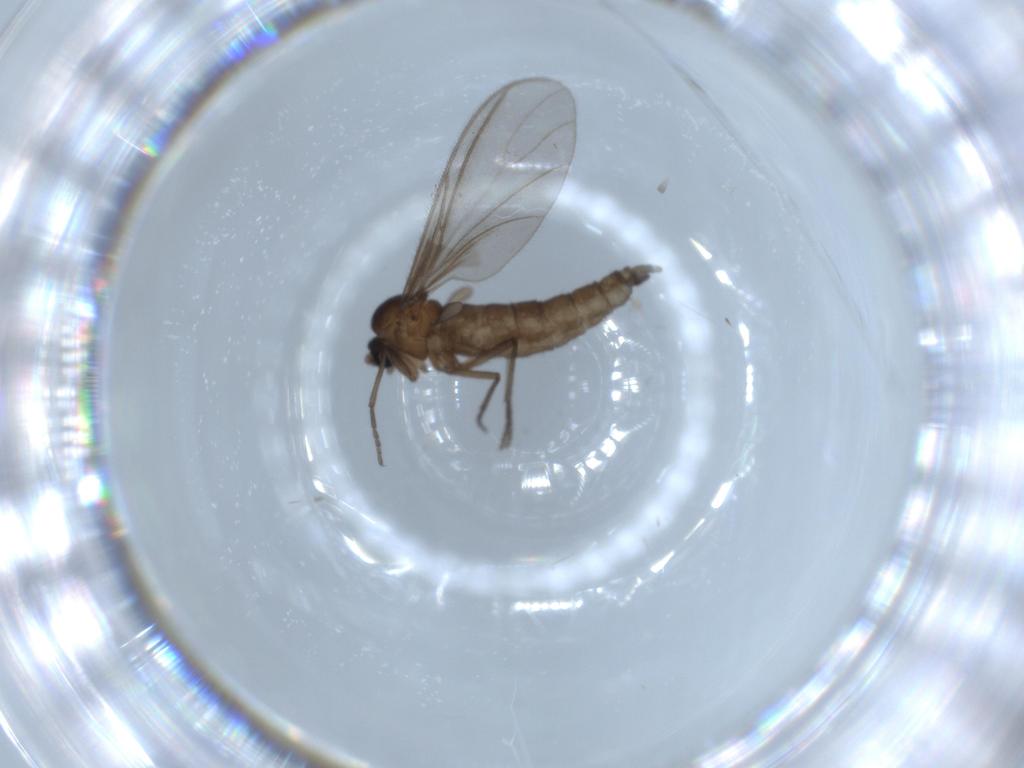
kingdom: Animalia
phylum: Arthropoda
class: Insecta
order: Diptera
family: Sciaridae
